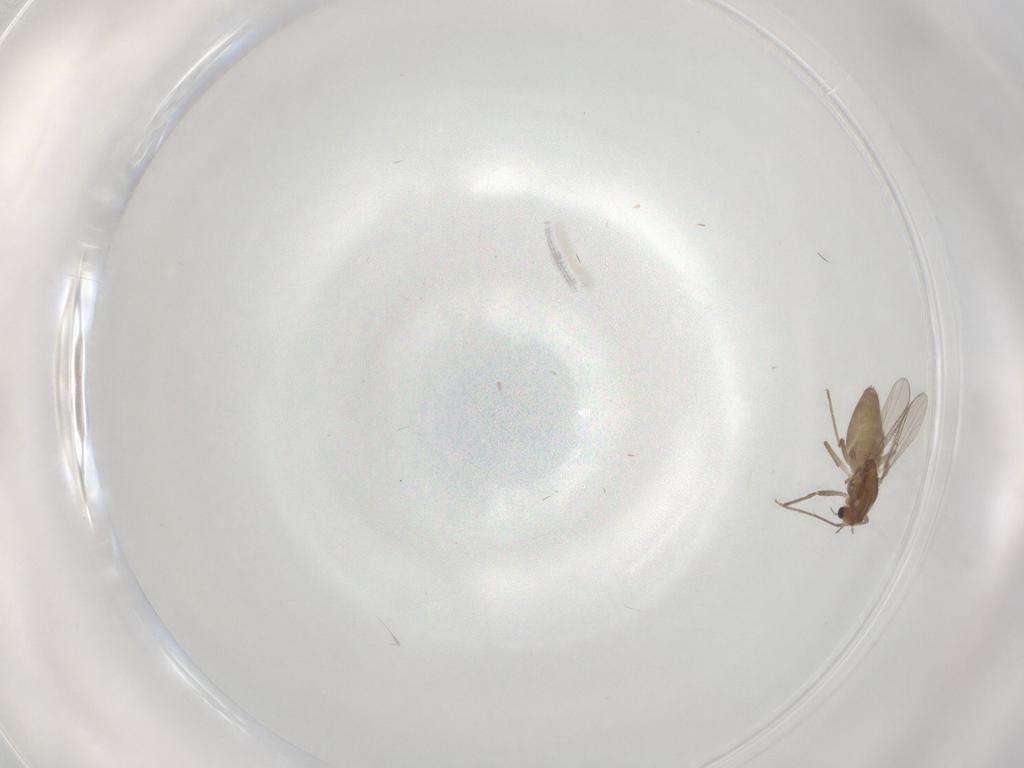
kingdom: Animalia
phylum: Arthropoda
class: Insecta
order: Diptera
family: Chironomidae
